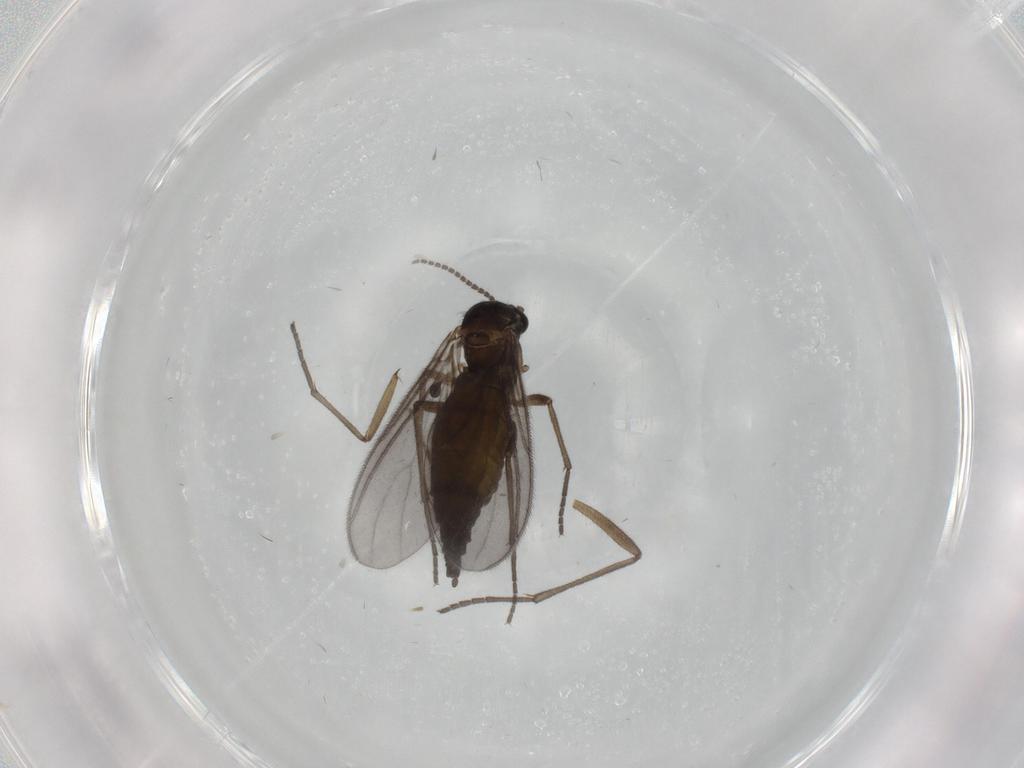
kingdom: Animalia
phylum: Arthropoda
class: Insecta
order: Diptera
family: Sciaridae
